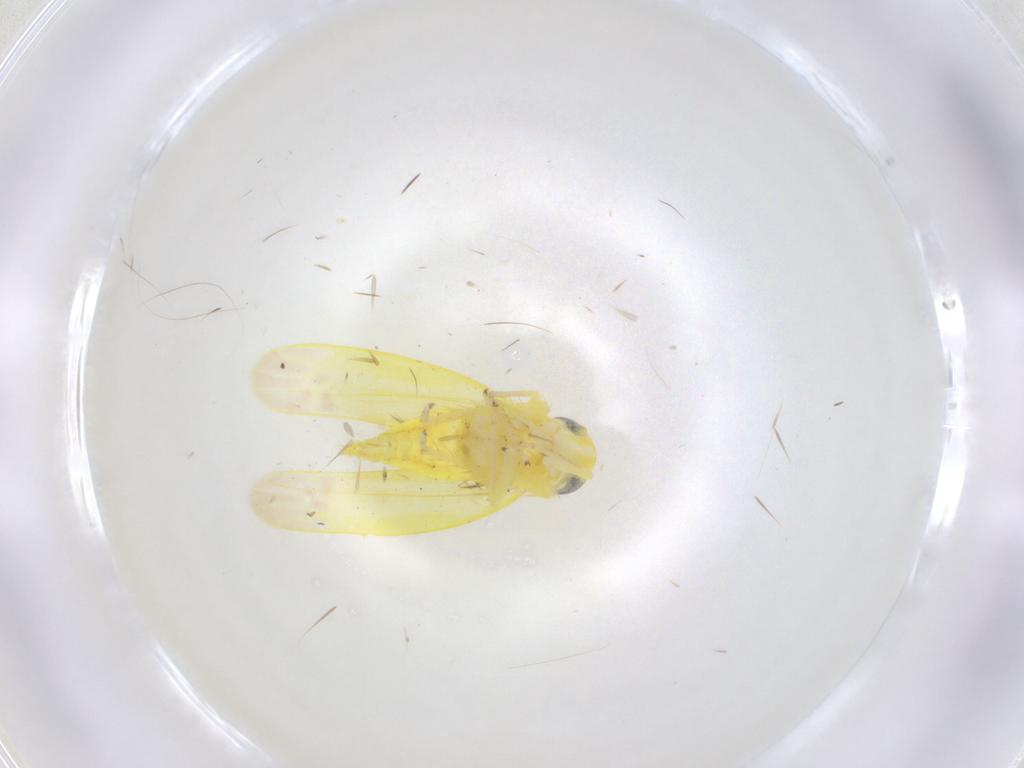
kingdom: Animalia
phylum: Arthropoda
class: Insecta
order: Hemiptera
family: Cicadellidae
